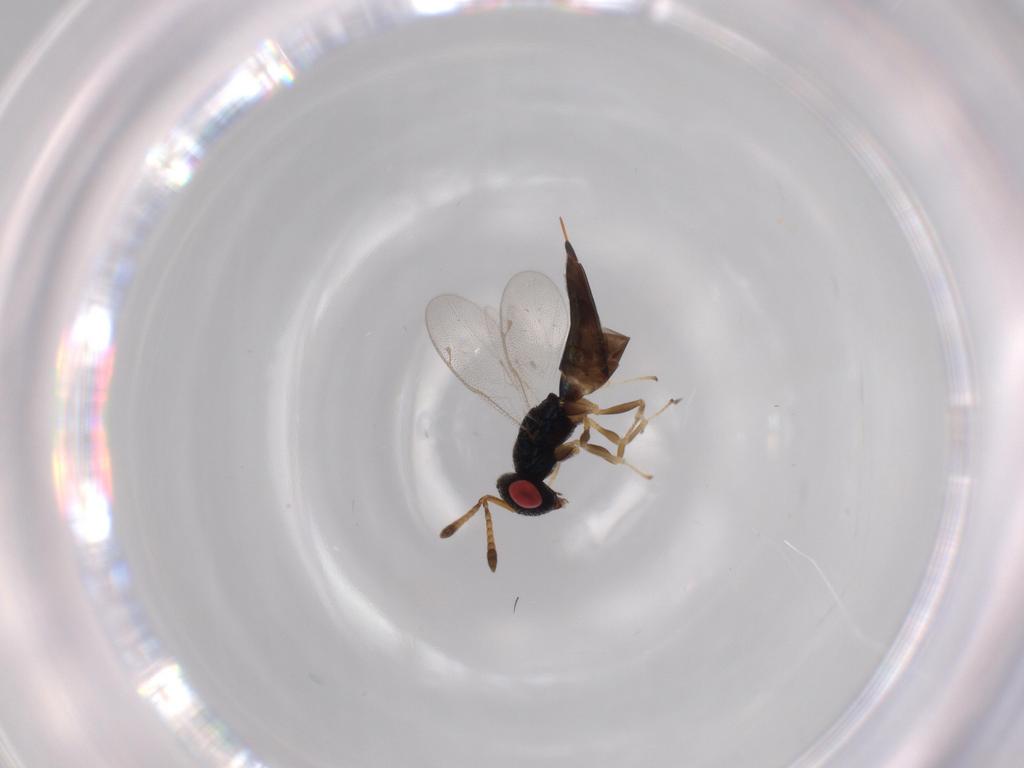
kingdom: Animalia
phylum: Arthropoda
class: Insecta
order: Hymenoptera
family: Pteromalidae
